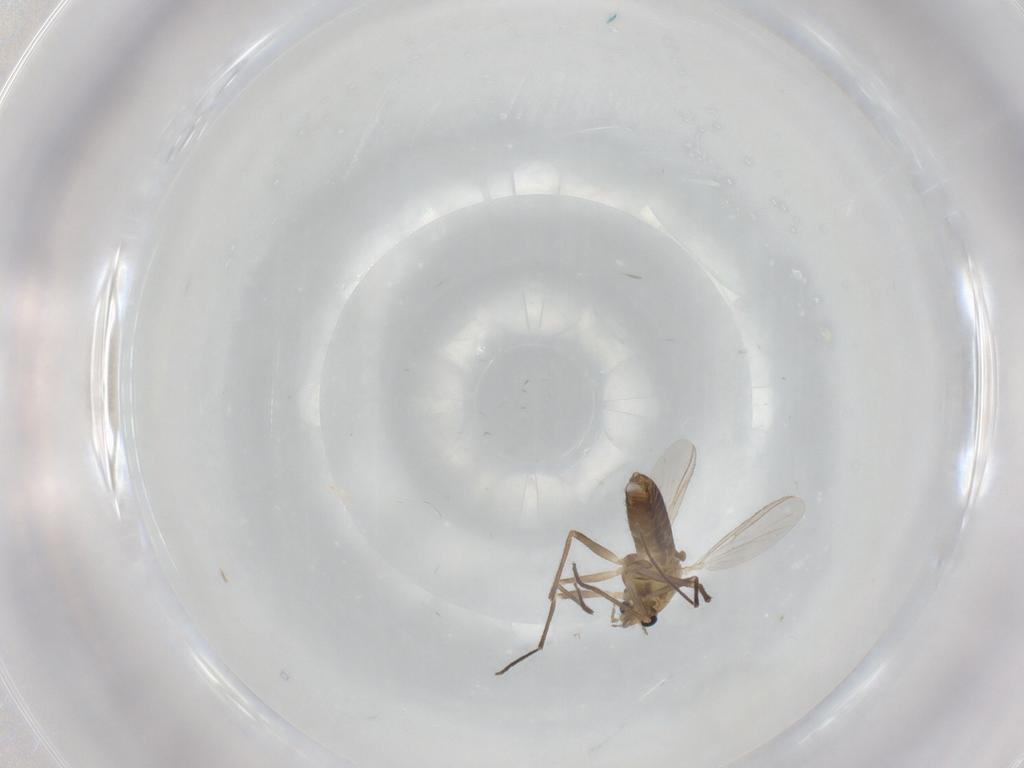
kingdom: Animalia
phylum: Arthropoda
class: Insecta
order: Diptera
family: Chironomidae
